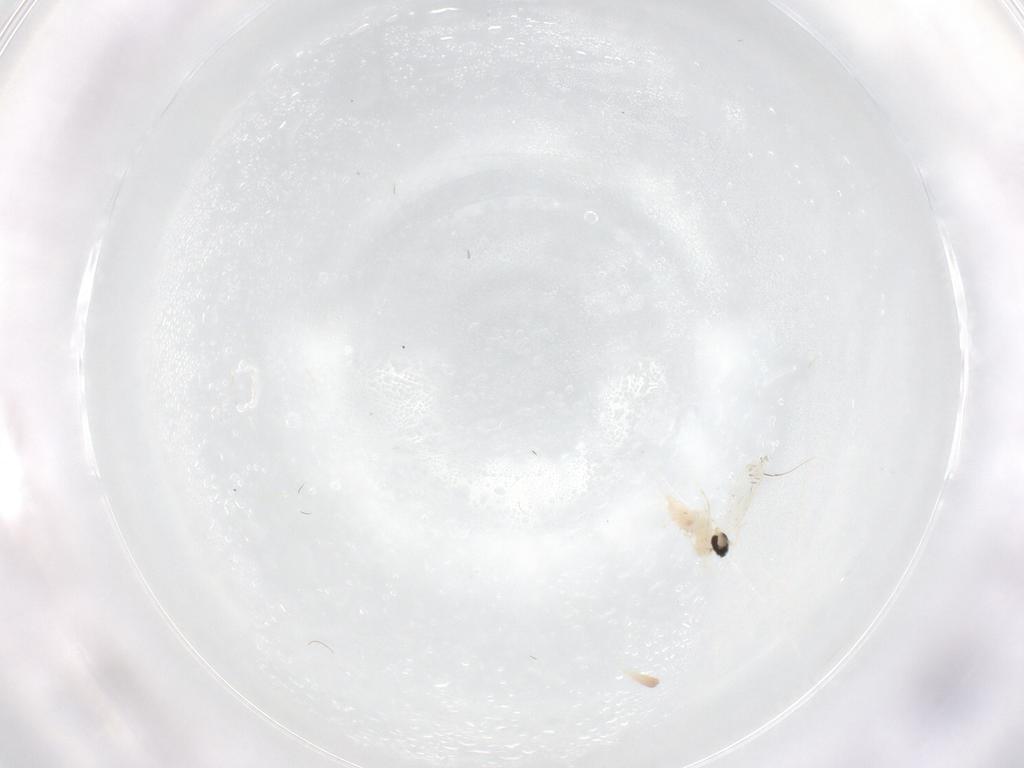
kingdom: Animalia
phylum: Arthropoda
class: Insecta
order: Diptera
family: Cecidomyiidae
